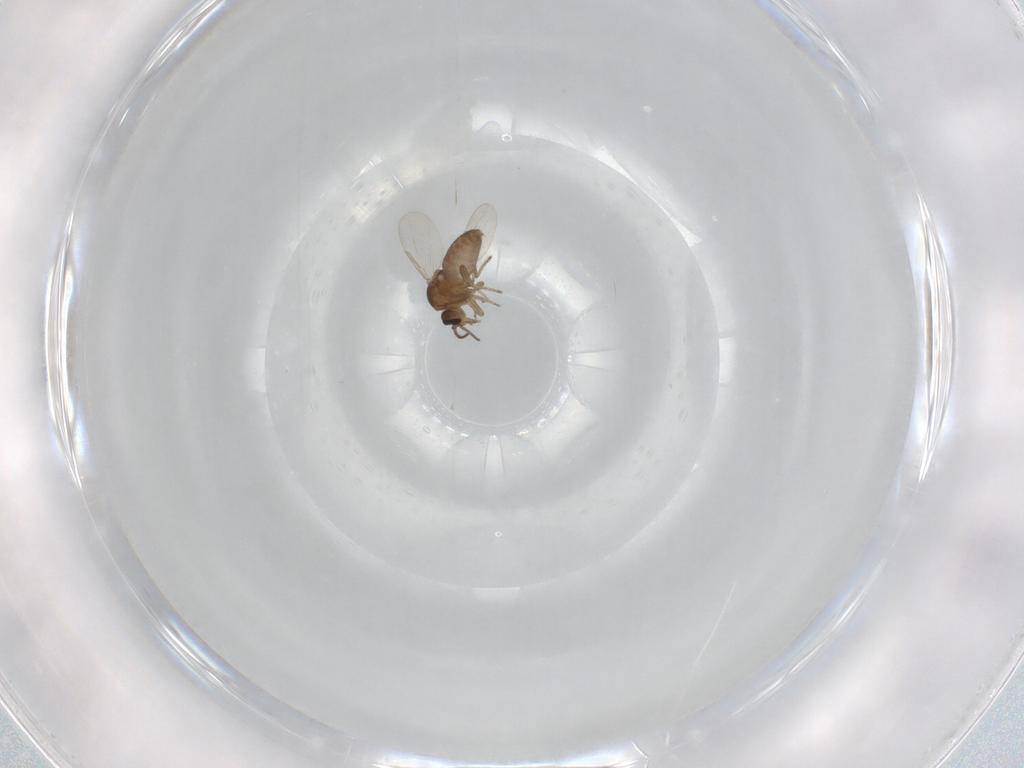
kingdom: Animalia
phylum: Arthropoda
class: Insecta
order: Diptera
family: Ceratopogonidae
